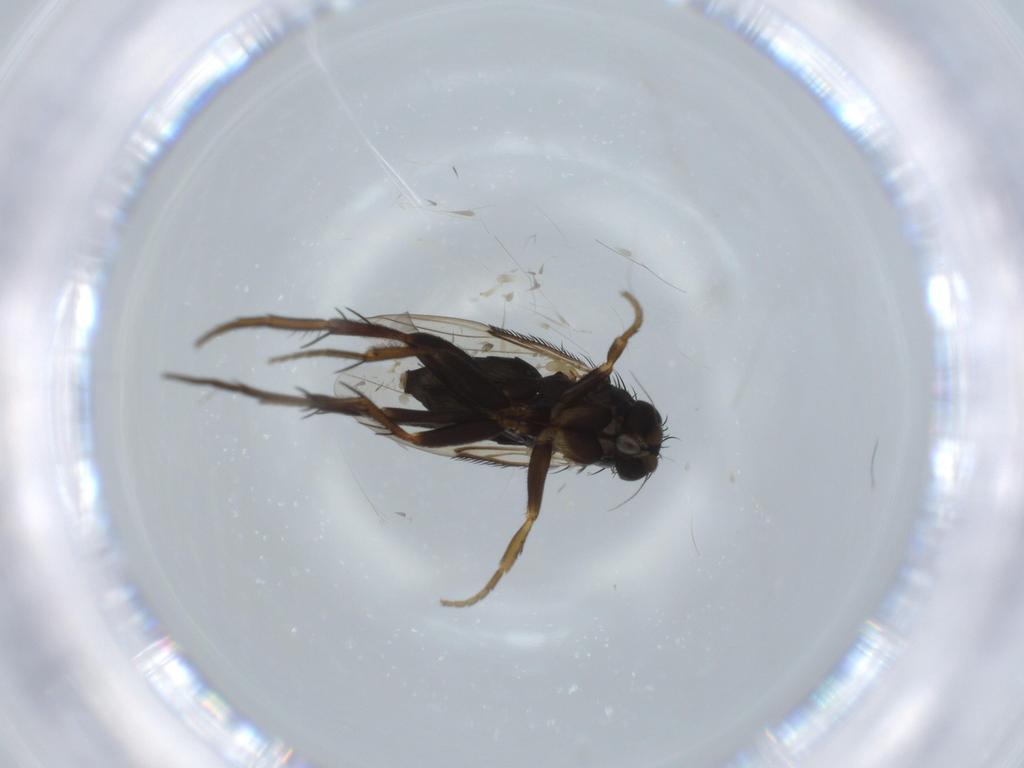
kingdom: Animalia
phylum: Arthropoda
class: Insecta
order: Diptera
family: Phoridae
